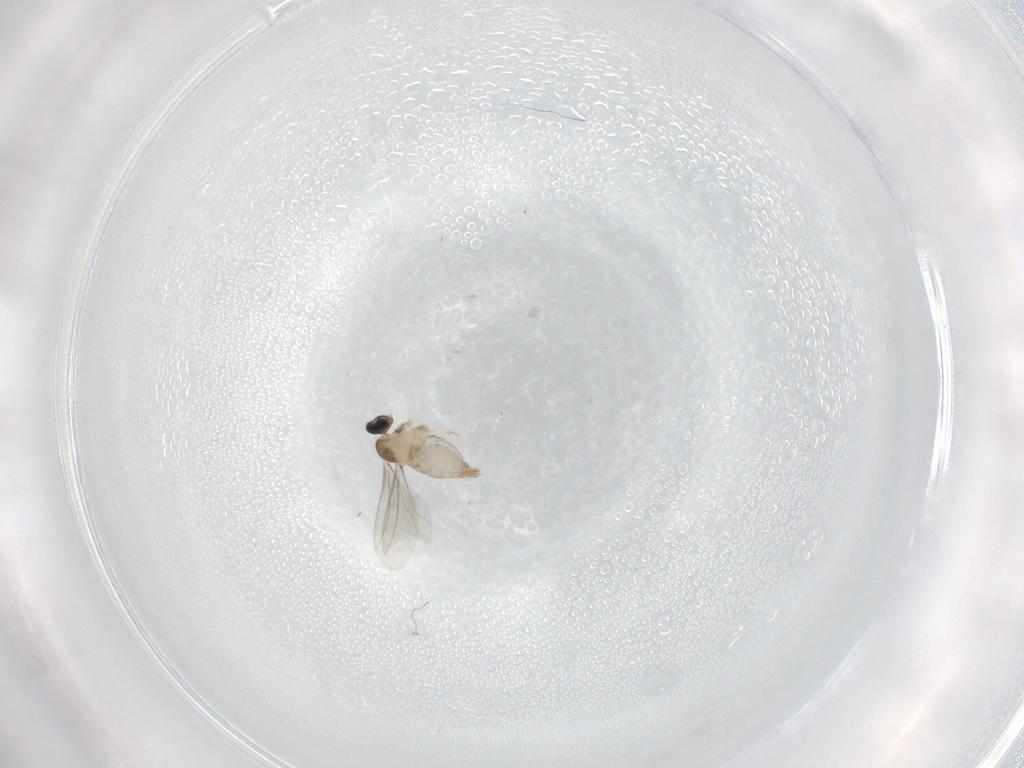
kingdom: Animalia
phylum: Arthropoda
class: Insecta
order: Diptera
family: Cecidomyiidae
